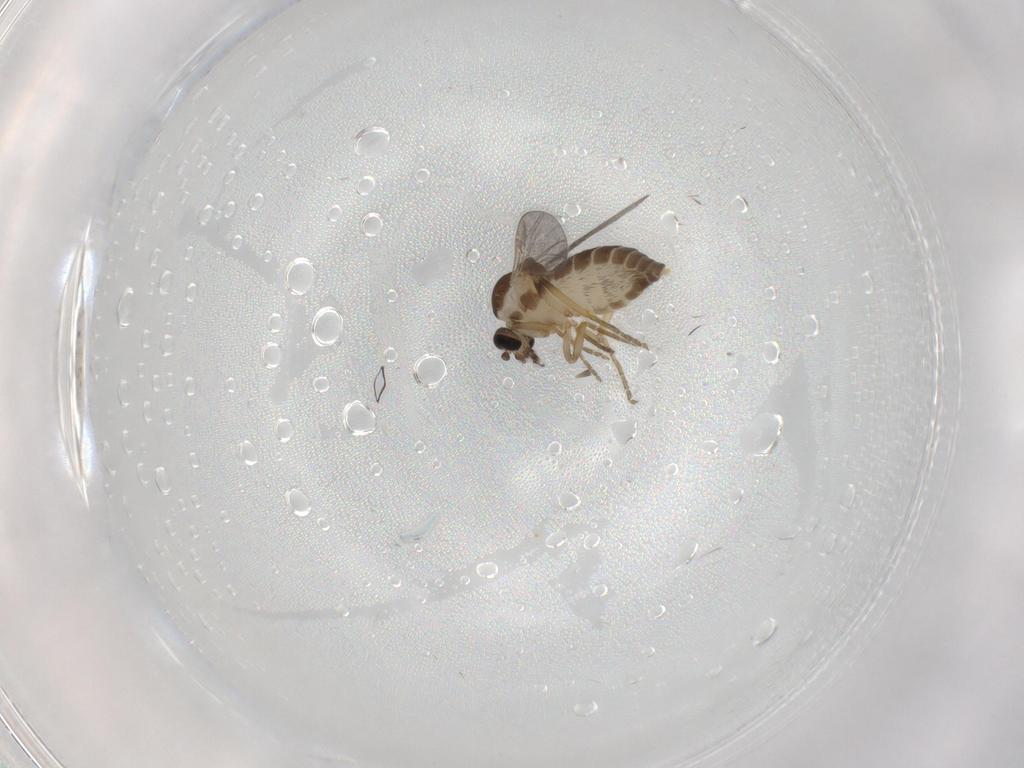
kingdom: Animalia
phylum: Arthropoda
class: Insecta
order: Diptera
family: Ceratopogonidae
